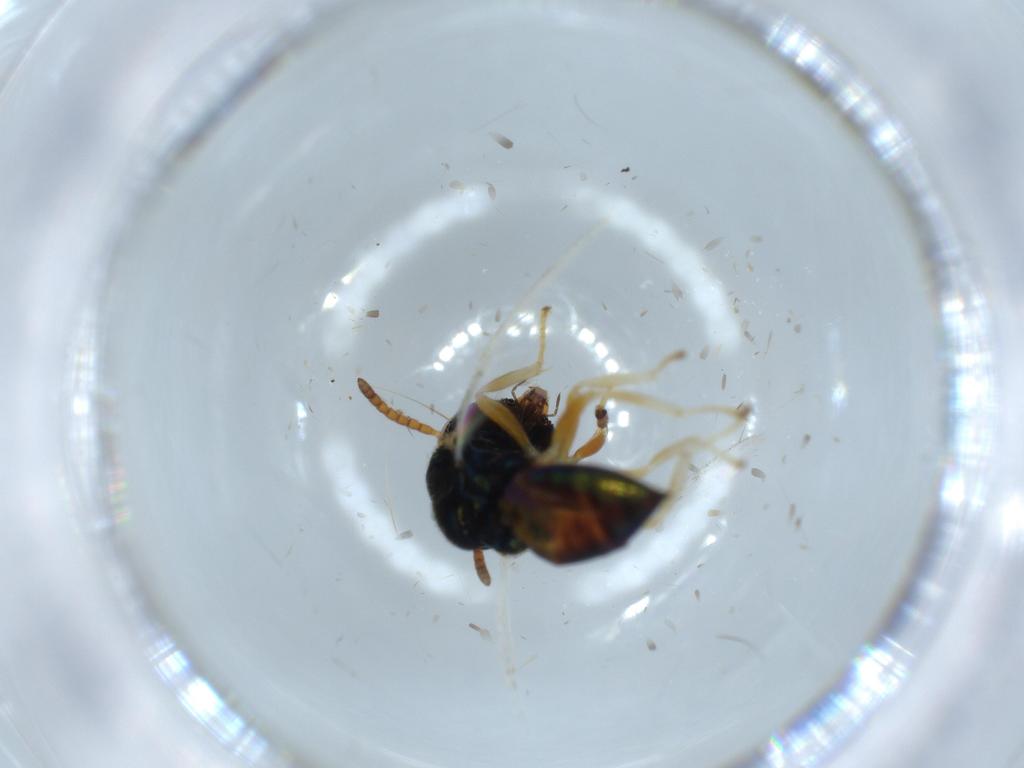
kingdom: Animalia
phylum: Arthropoda
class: Insecta
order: Hymenoptera
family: Pteromalidae
